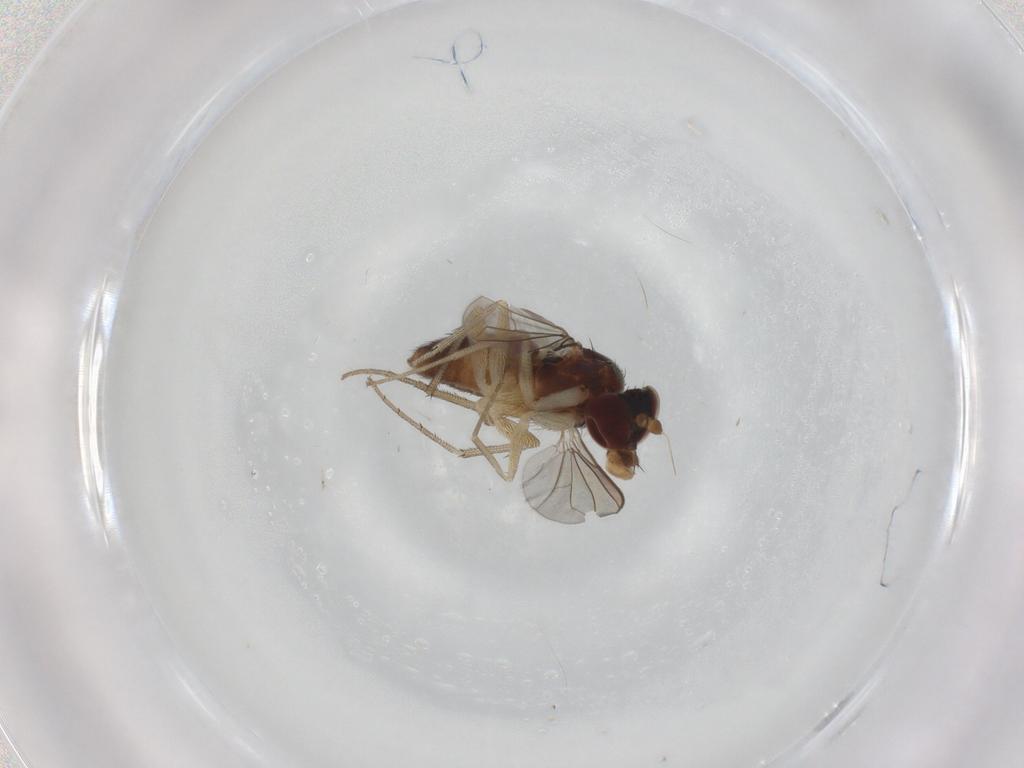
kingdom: Animalia
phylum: Arthropoda
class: Insecta
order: Diptera
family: Dolichopodidae
